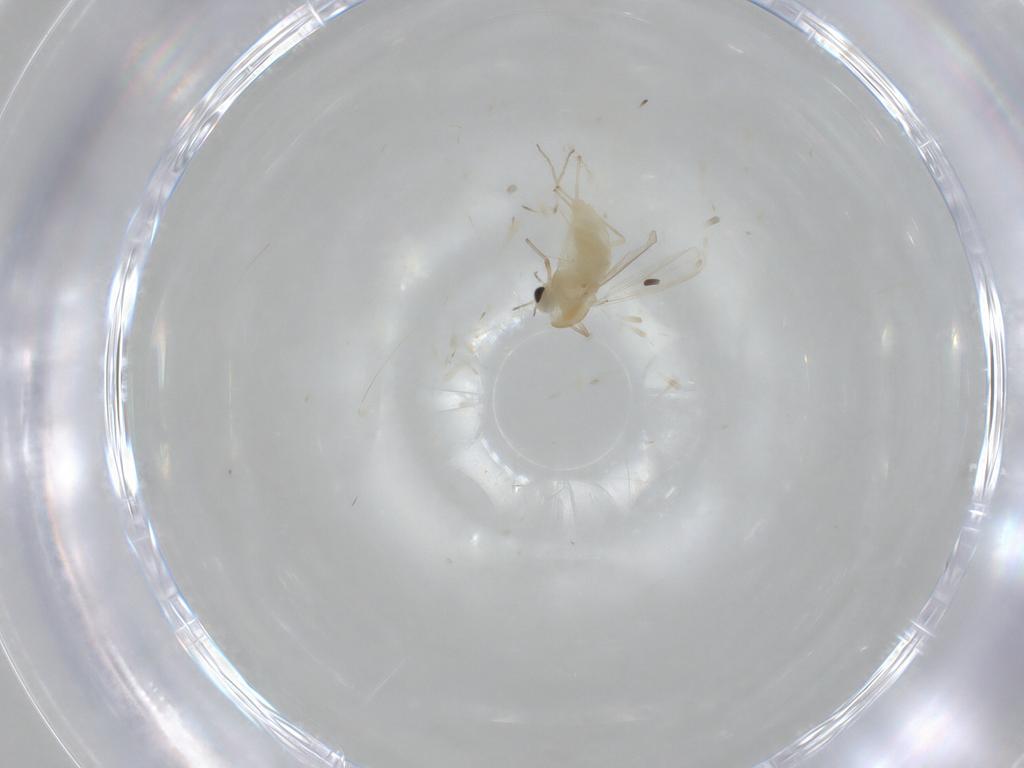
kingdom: Animalia
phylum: Arthropoda
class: Insecta
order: Diptera
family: Chironomidae
